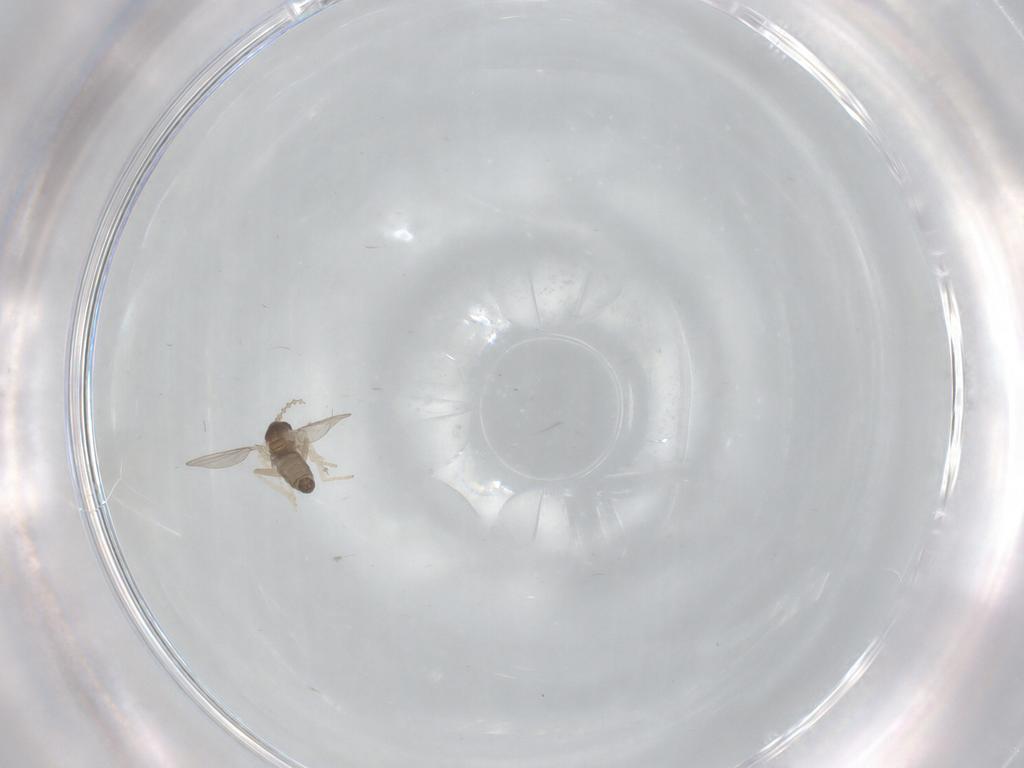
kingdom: Animalia
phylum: Arthropoda
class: Insecta
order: Diptera
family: Cecidomyiidae
